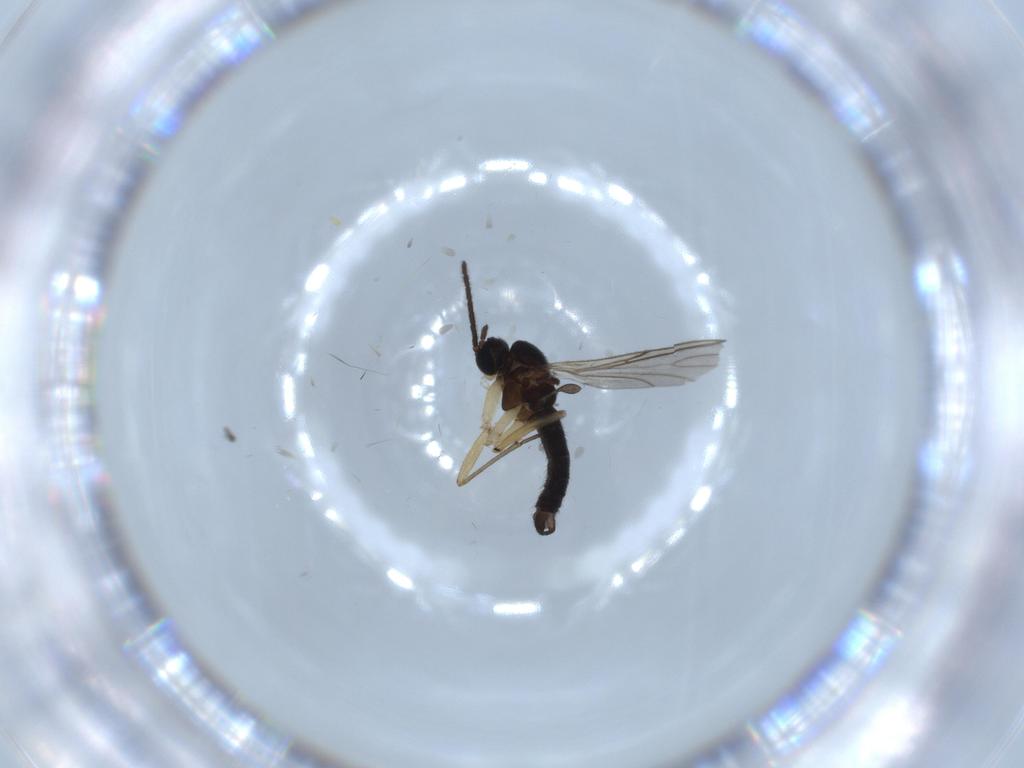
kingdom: Animalia
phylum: Arthropoda
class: Insecta
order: Diptera
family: Sciaridae
